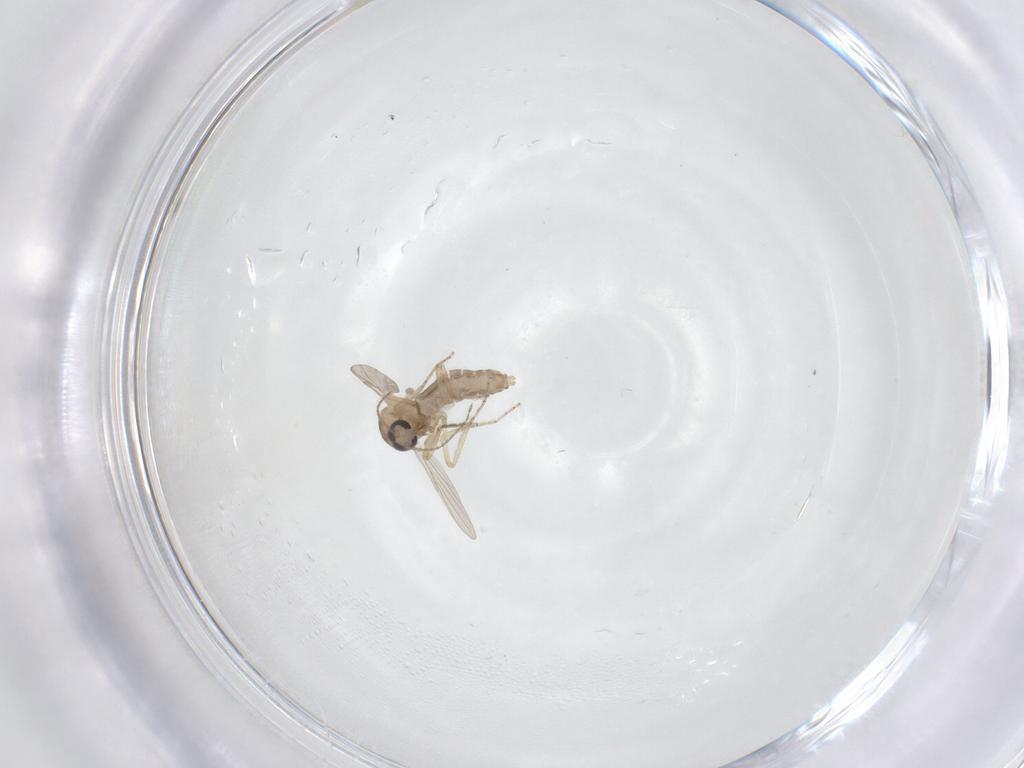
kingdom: Animalia
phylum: Arthropoda
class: Insecta
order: Diptera
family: Ceratopogonidae
